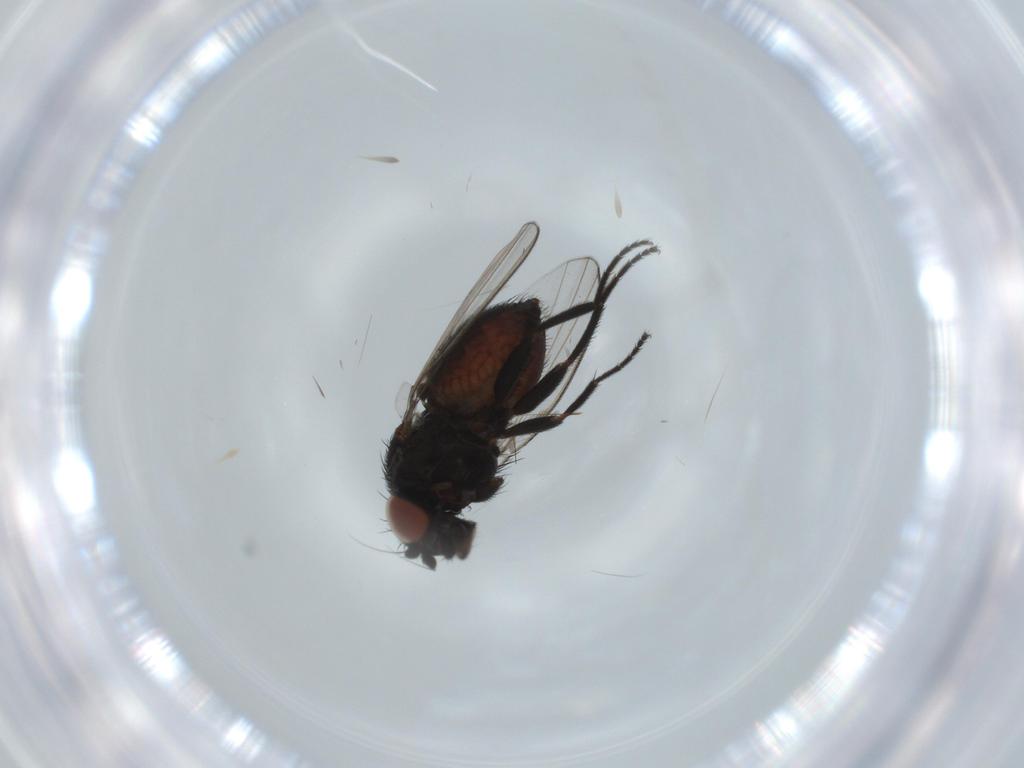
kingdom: Animalia
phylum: Arthropoda
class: Insecta
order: Diptera
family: Milichiidae
